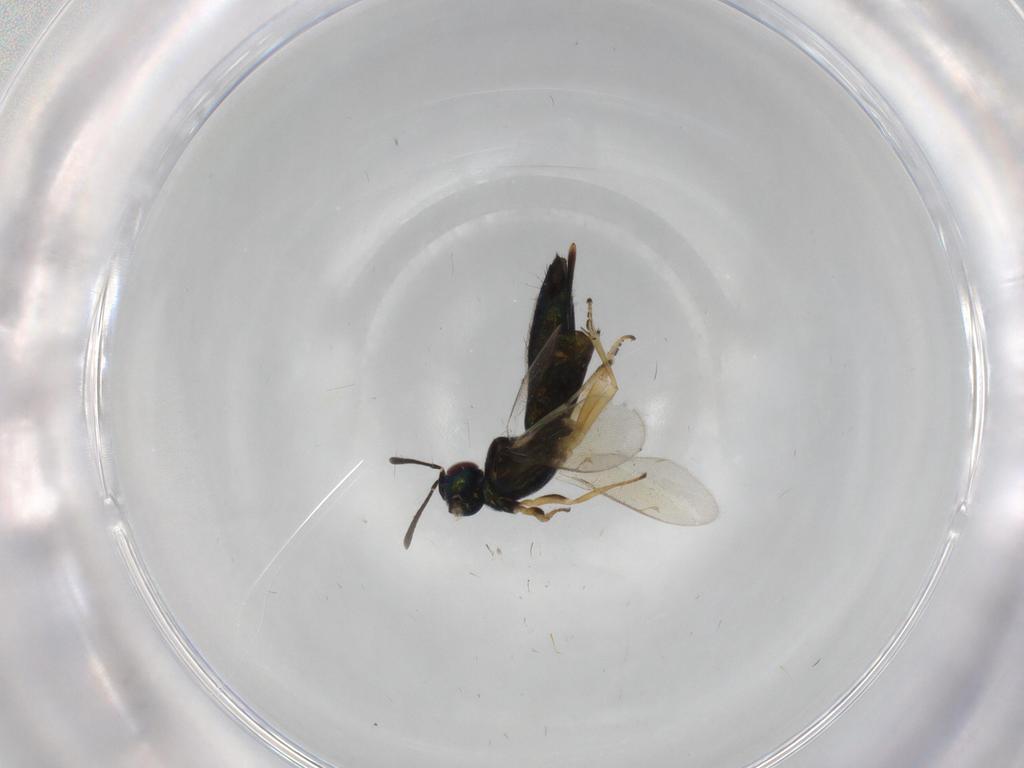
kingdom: Animalia
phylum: Arthropoda
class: Insecta
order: Hymenoptera
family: Eupelmidae
